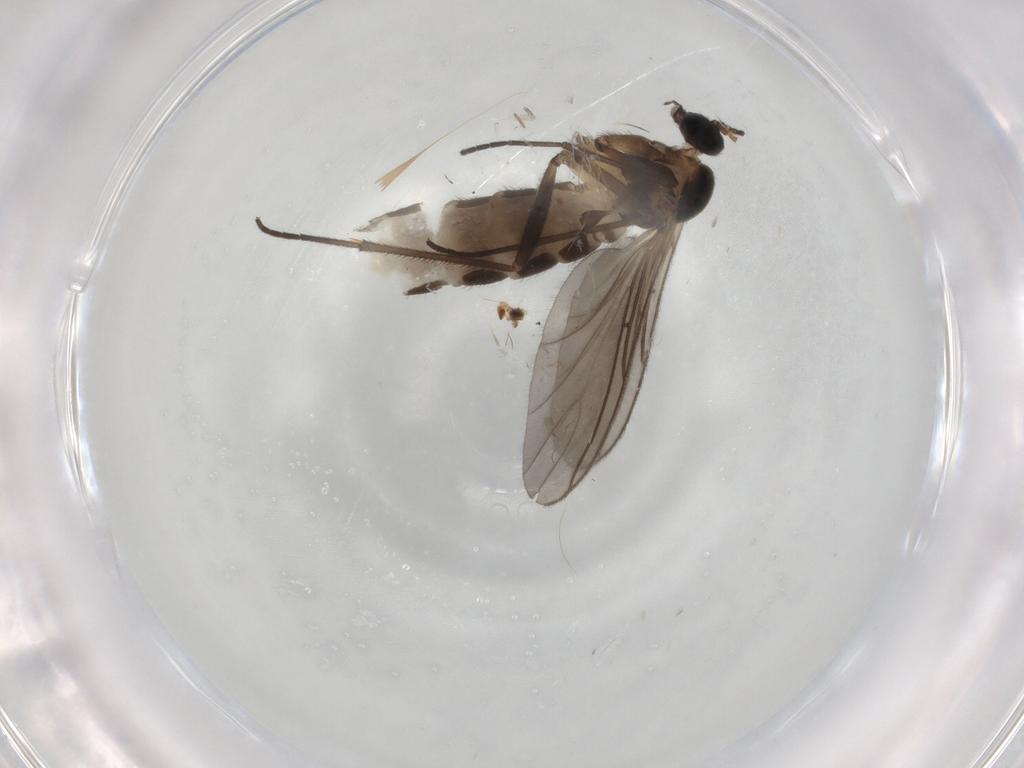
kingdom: Animalia
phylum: Arthropoda
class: Insecta
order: Diptera
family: Sciaridae
